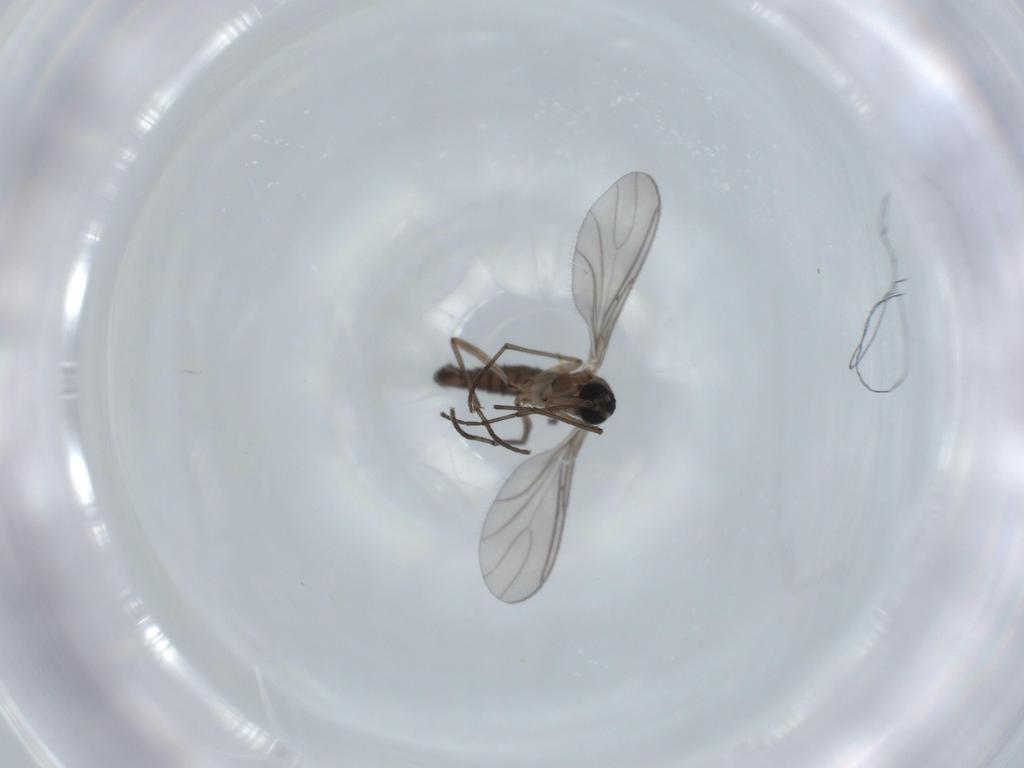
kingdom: Animalia
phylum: Arthropoda
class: Insecta
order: Diptera
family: Sciaridae
